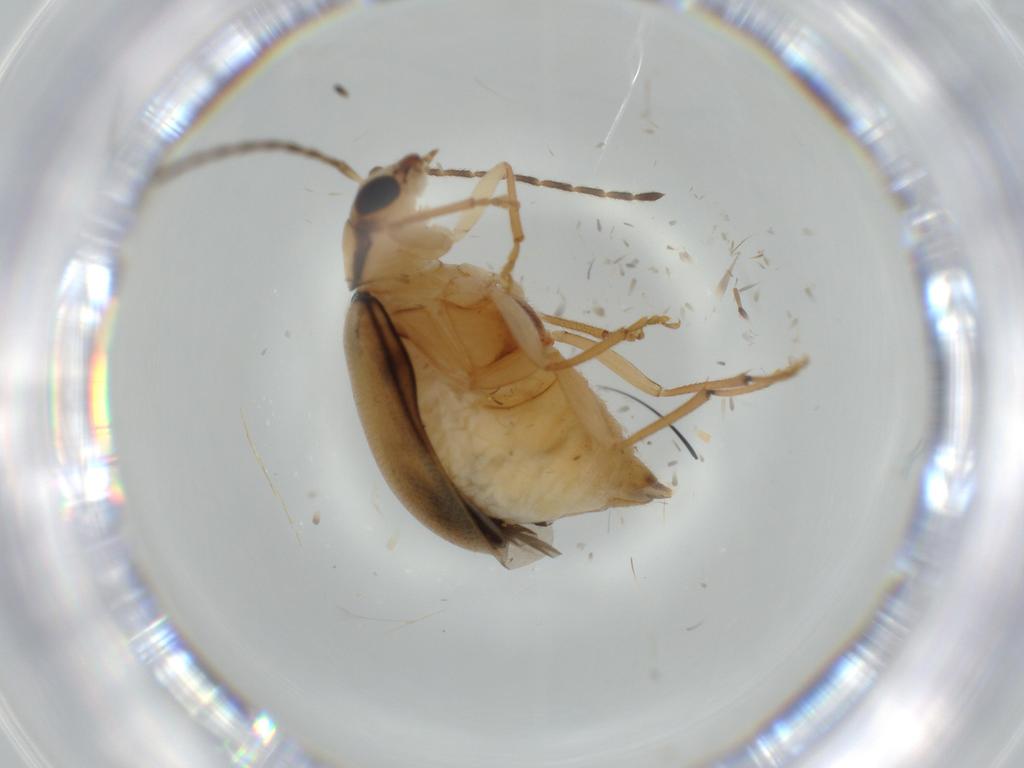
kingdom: Animalia
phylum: Arthropoda
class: Insecta
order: Coleoptera
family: Chrysomelidae
